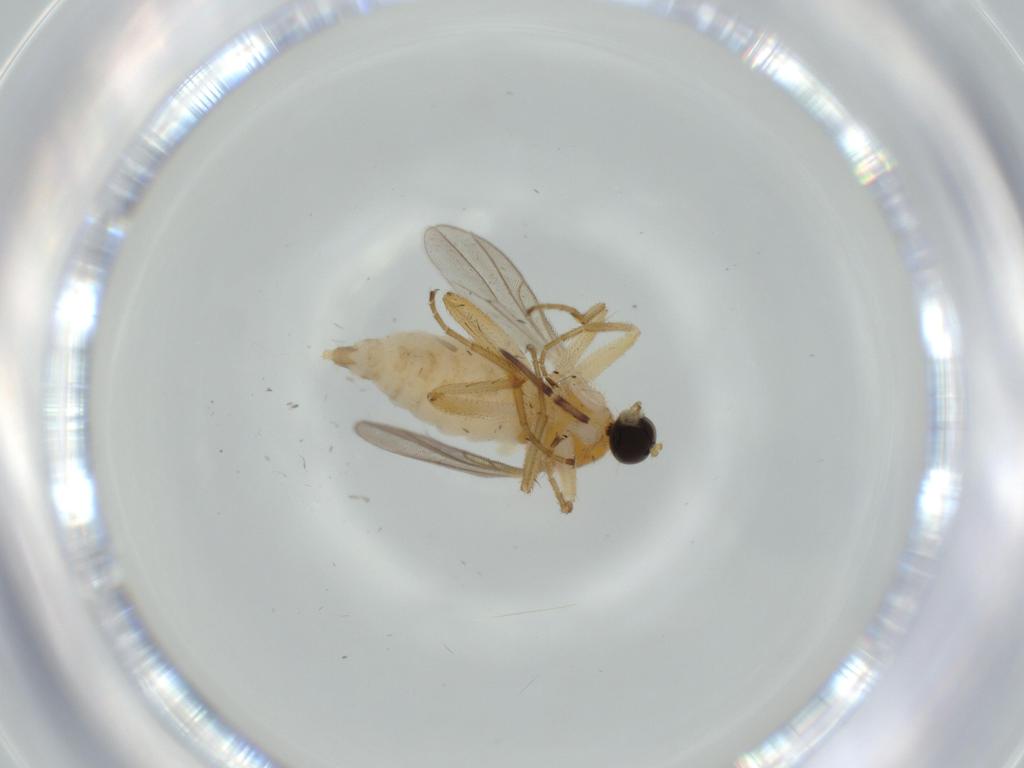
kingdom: Animalia
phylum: Arthropoda
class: Insecta
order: Diptera
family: Hybotidae
